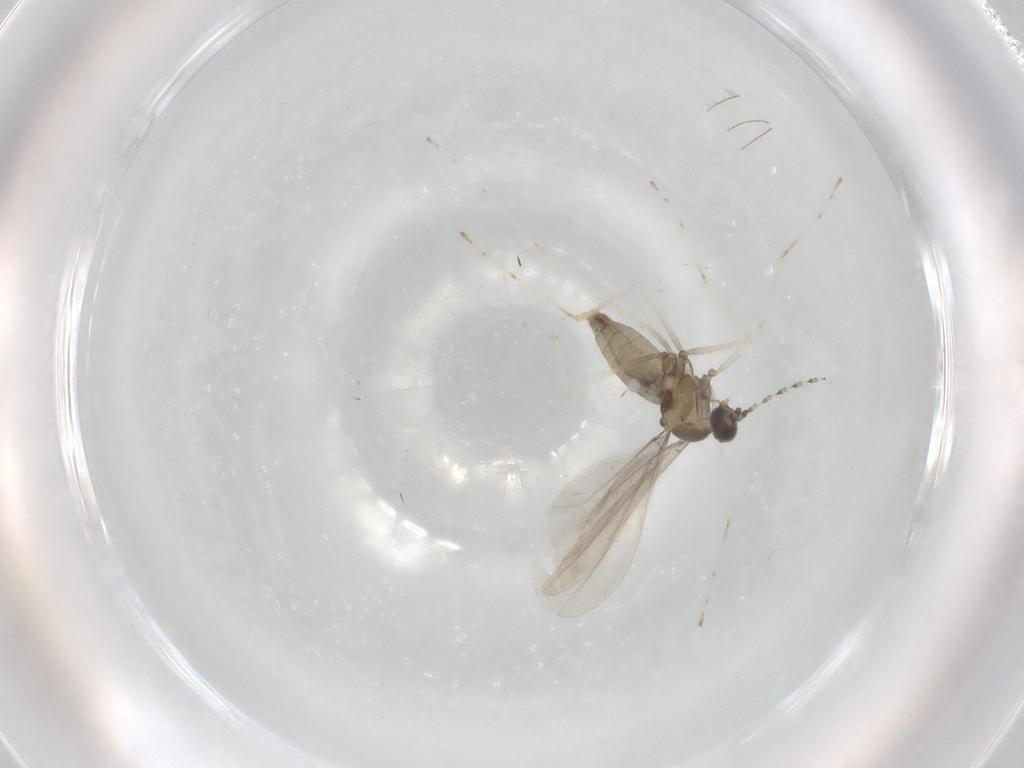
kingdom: Animalia
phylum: Arthropoda
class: Insecta
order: Diptera
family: Cecidomyiidae
